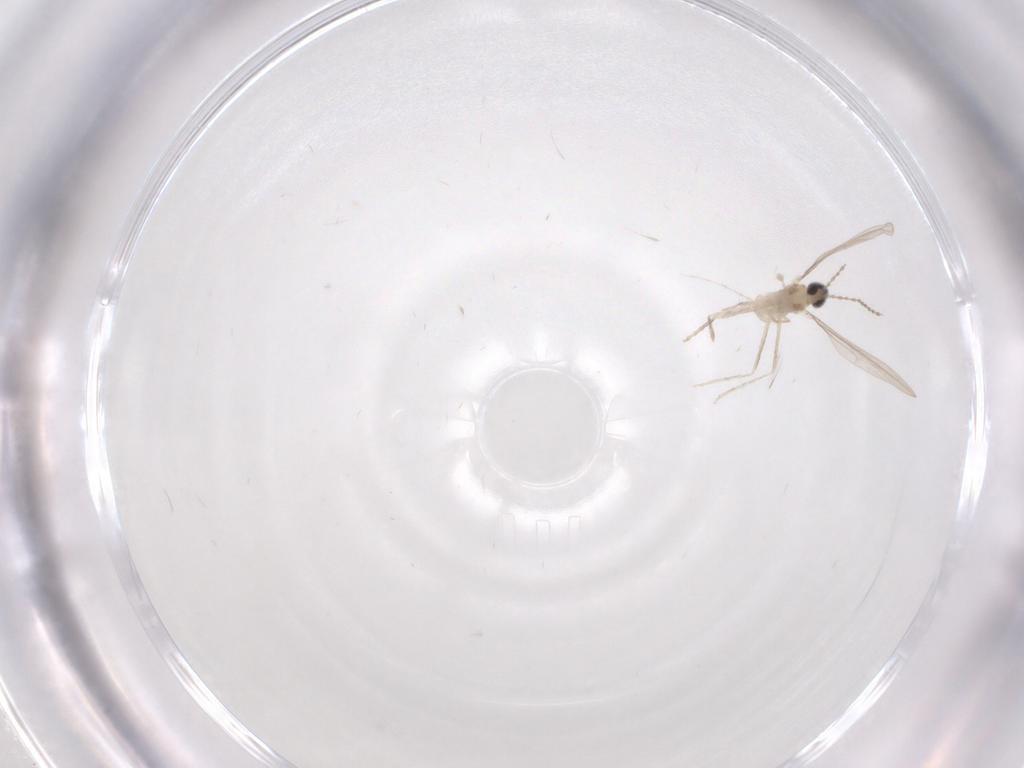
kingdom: Animalia
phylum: Arthropoda
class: Insecta
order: Diptera
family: Cecidomyiidae
